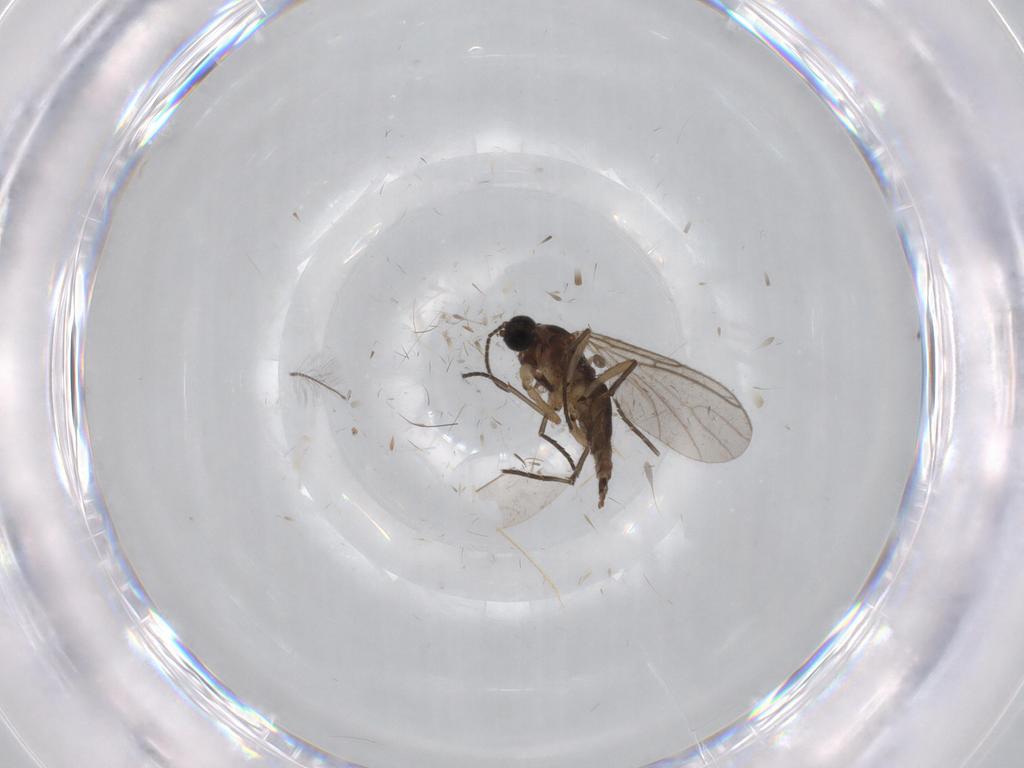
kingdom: Animalia
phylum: Arthropoda
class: Insecta
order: Diptera
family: Sciaridae
